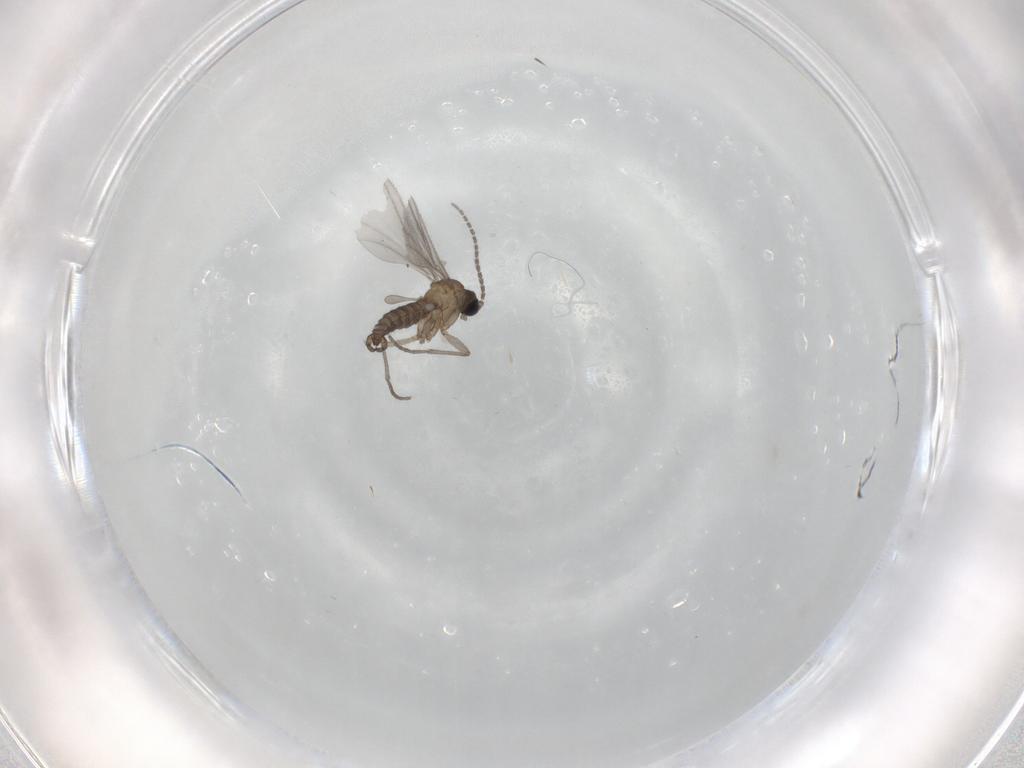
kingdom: Animalia
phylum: Arthropoda
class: Insecta
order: Diptera
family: Sciaridae
